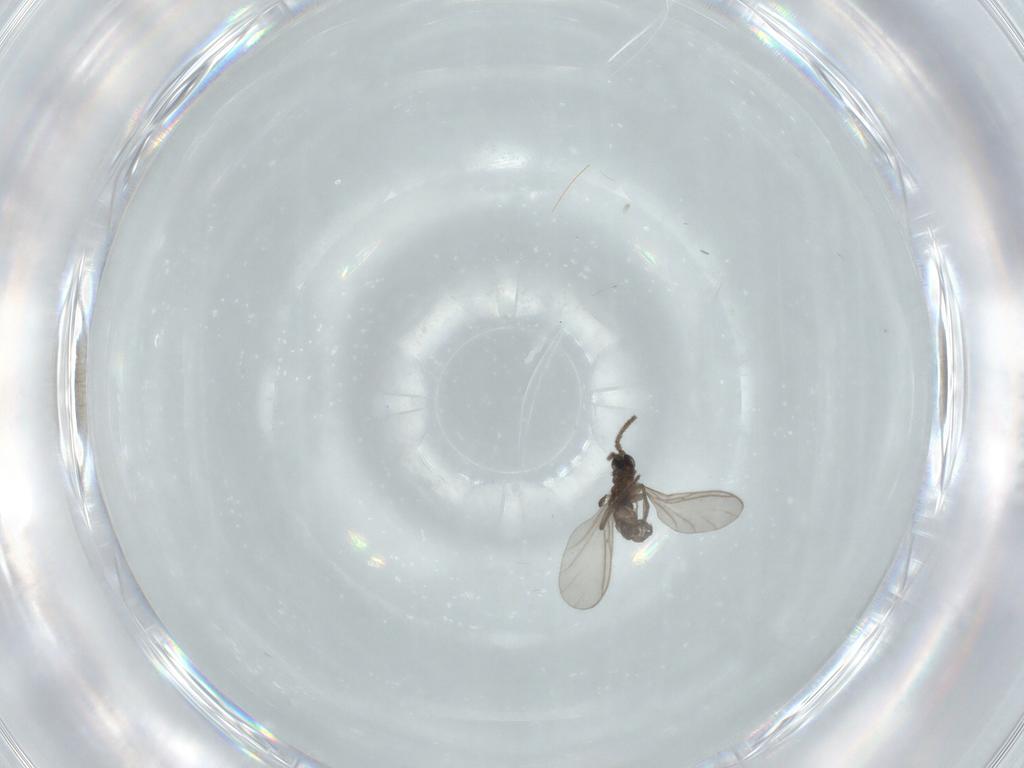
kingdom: Animalia
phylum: Arthropoda
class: Insecta
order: Diptera
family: Sciaridae
